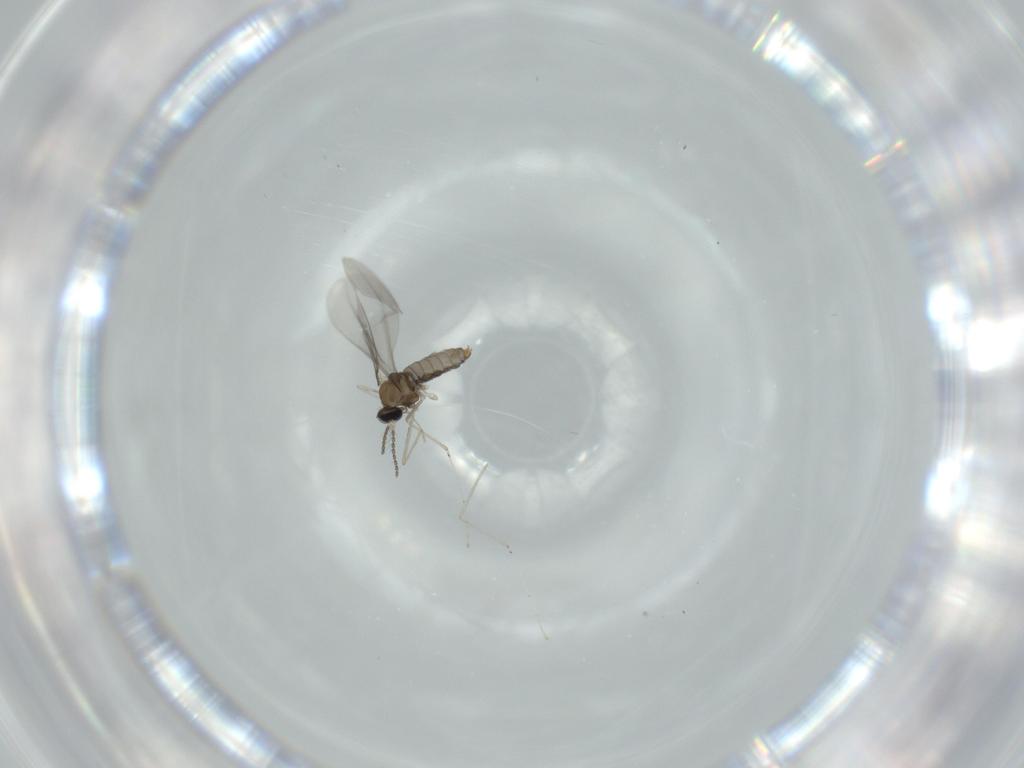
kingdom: Animalia
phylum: Arthropoda
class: Insecta
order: Diptera
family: Cecidomyiidae
